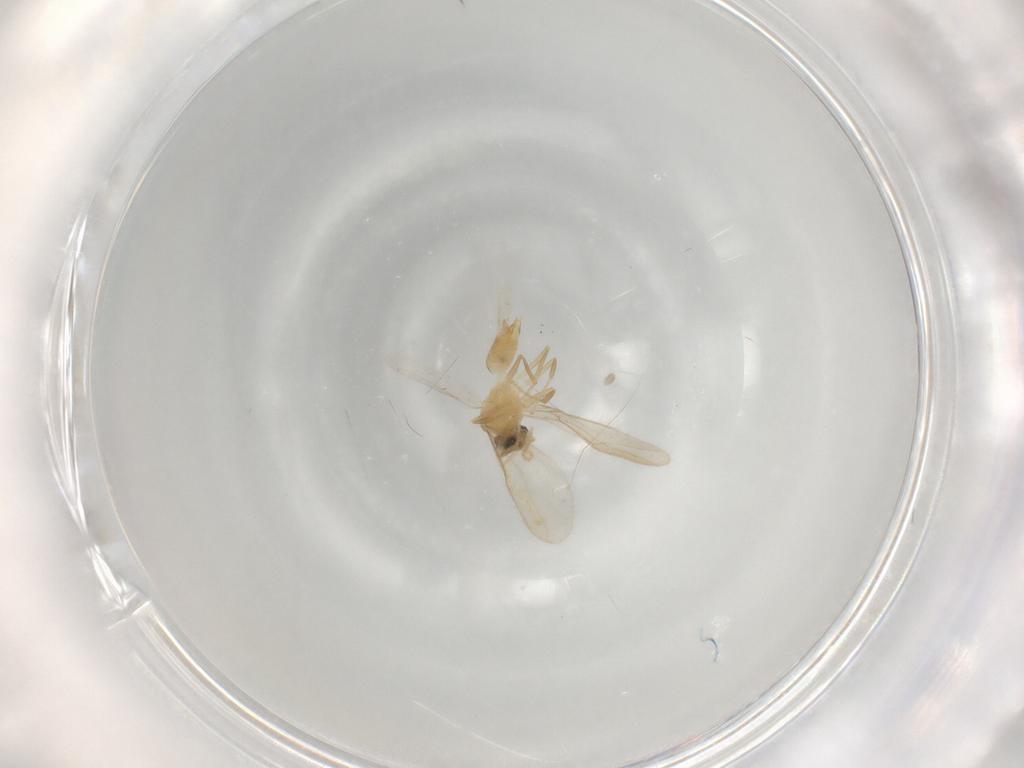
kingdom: Animalia
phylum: Arthropoda
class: Insecta
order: Hymenoptera
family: Formicidae
